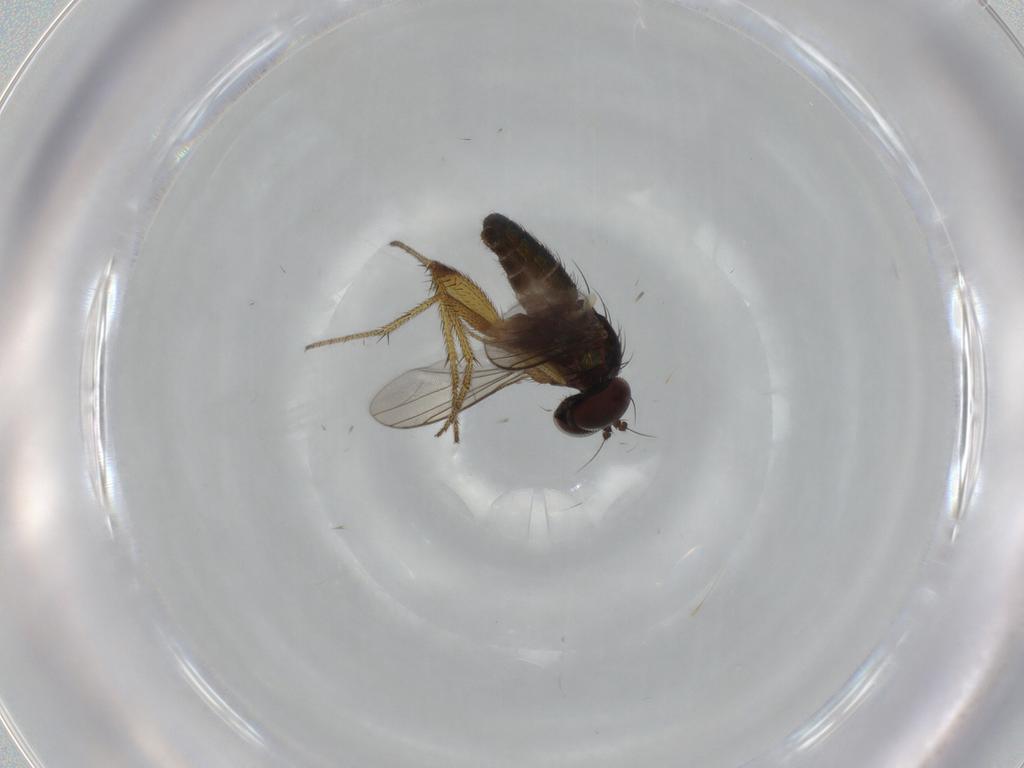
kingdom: Animalia
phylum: Arthropoda
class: Insecta
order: Diptera
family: Dolichopodidae
